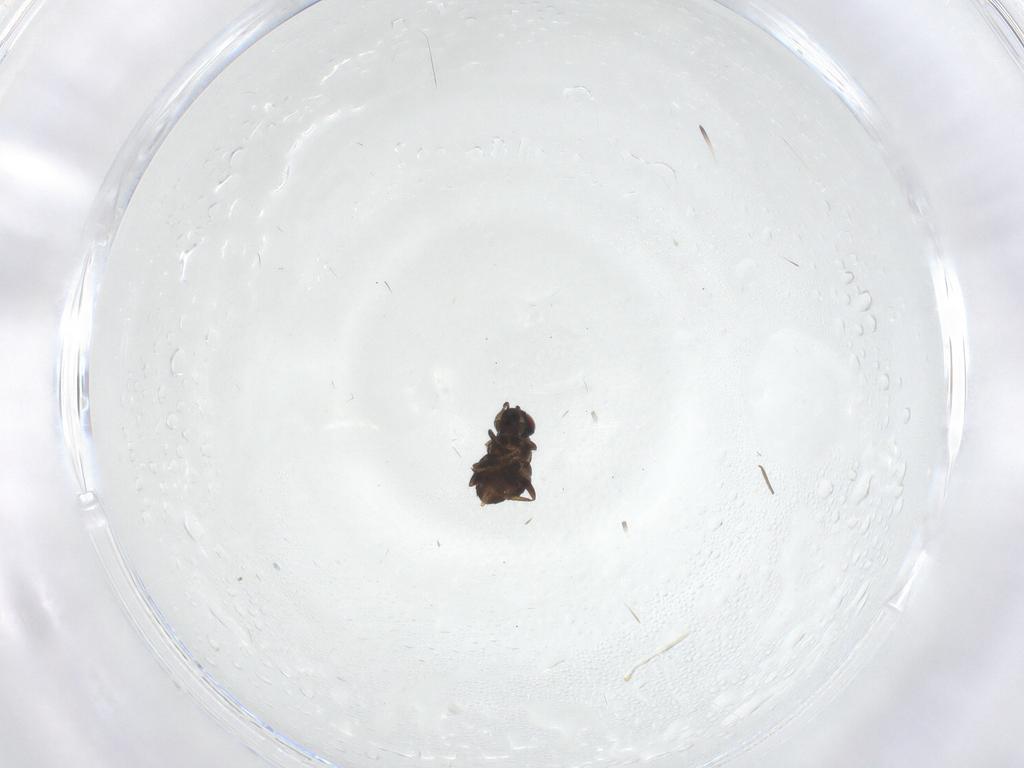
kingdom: Animalia
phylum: Arthropoda
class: Insecta
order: Diptera
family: Chironomidae
